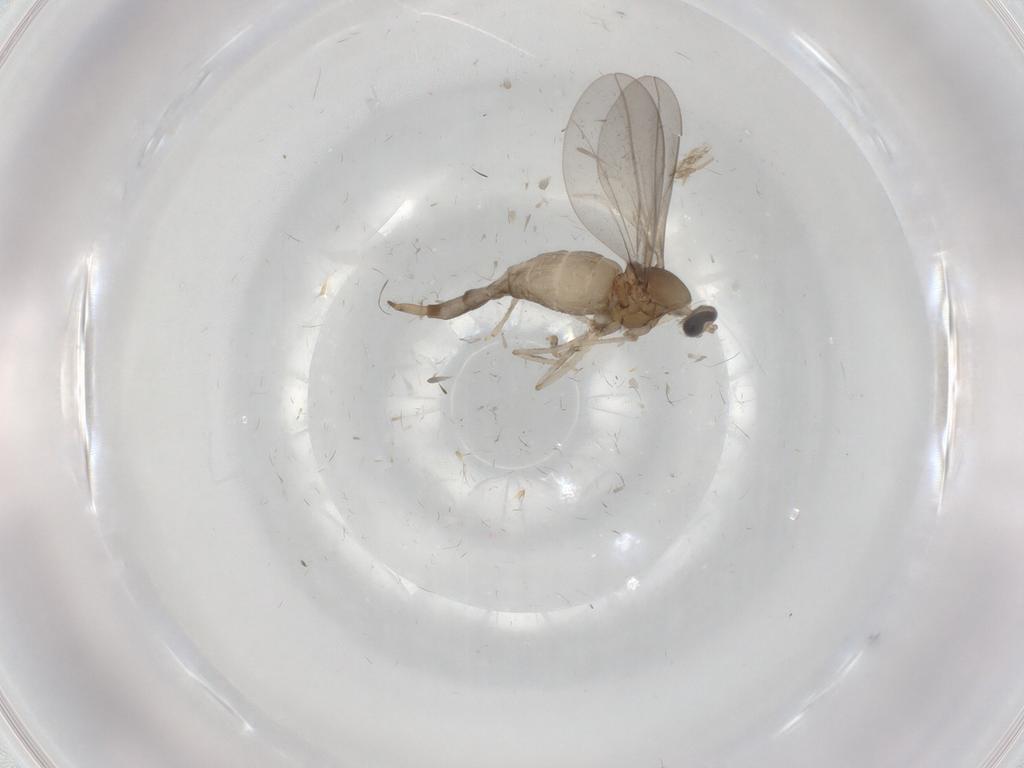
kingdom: Animalia
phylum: Arthropoda
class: Insecta
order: Diptera
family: Cecidomyiidae
